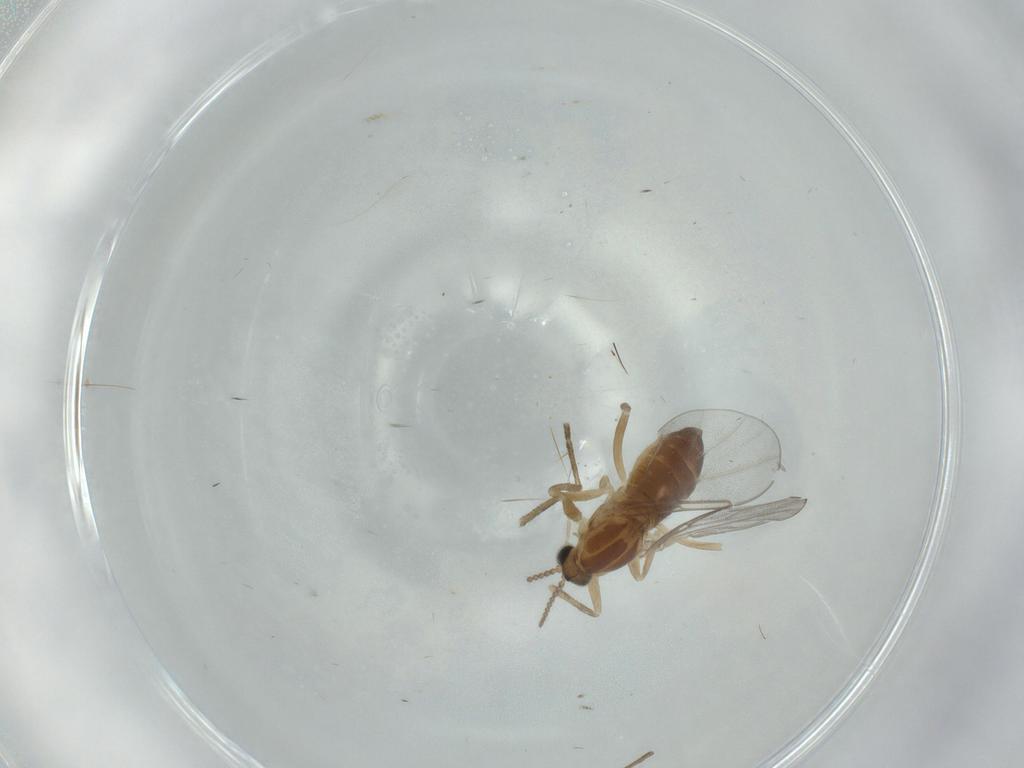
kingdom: Animalia
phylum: Arthropoda
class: Insecta
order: Diptera
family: Cecidomyiidae
